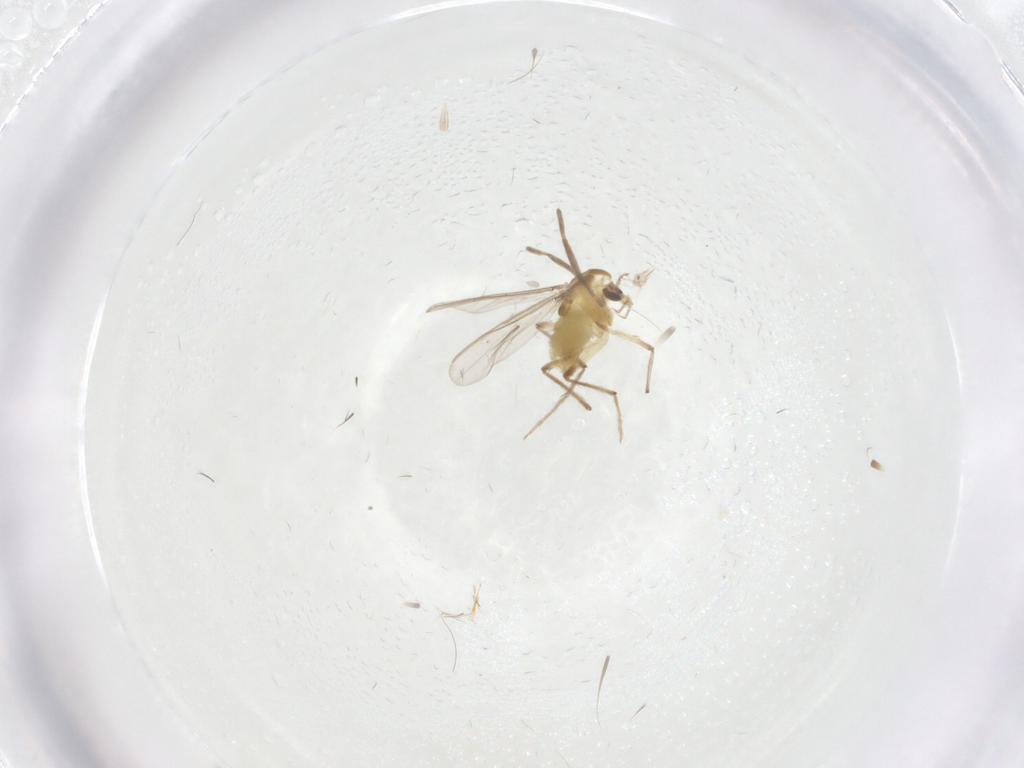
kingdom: Animalia
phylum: Arthropoda
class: Insecta
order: Diptera
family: Chironomidae
